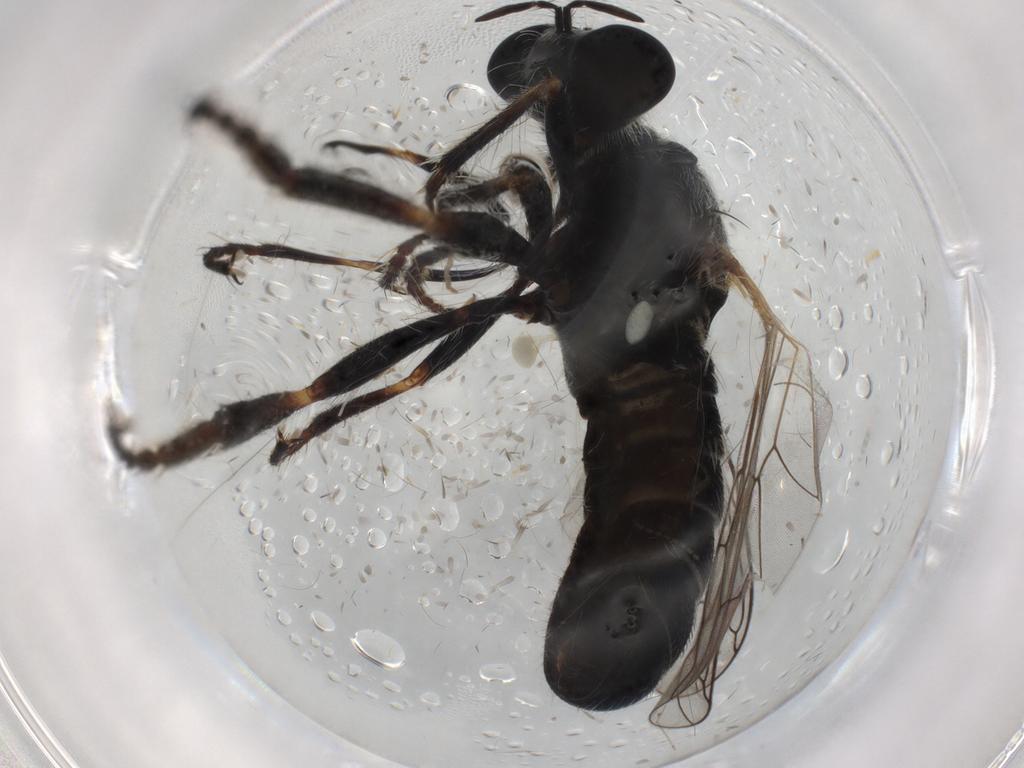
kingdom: Animalia
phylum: Arthropoda
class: Insecta
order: Diptera
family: Ceratopogonidae
